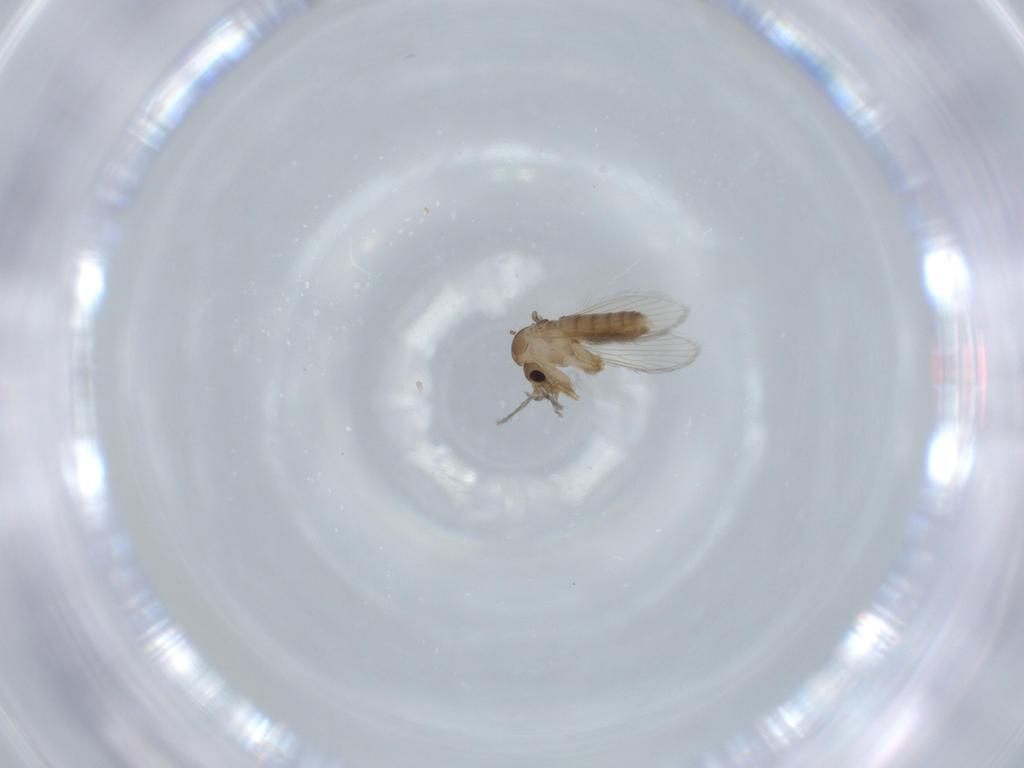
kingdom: Animalia
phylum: Arthropoda
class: Insecta
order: Diptera
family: Psychodidae
